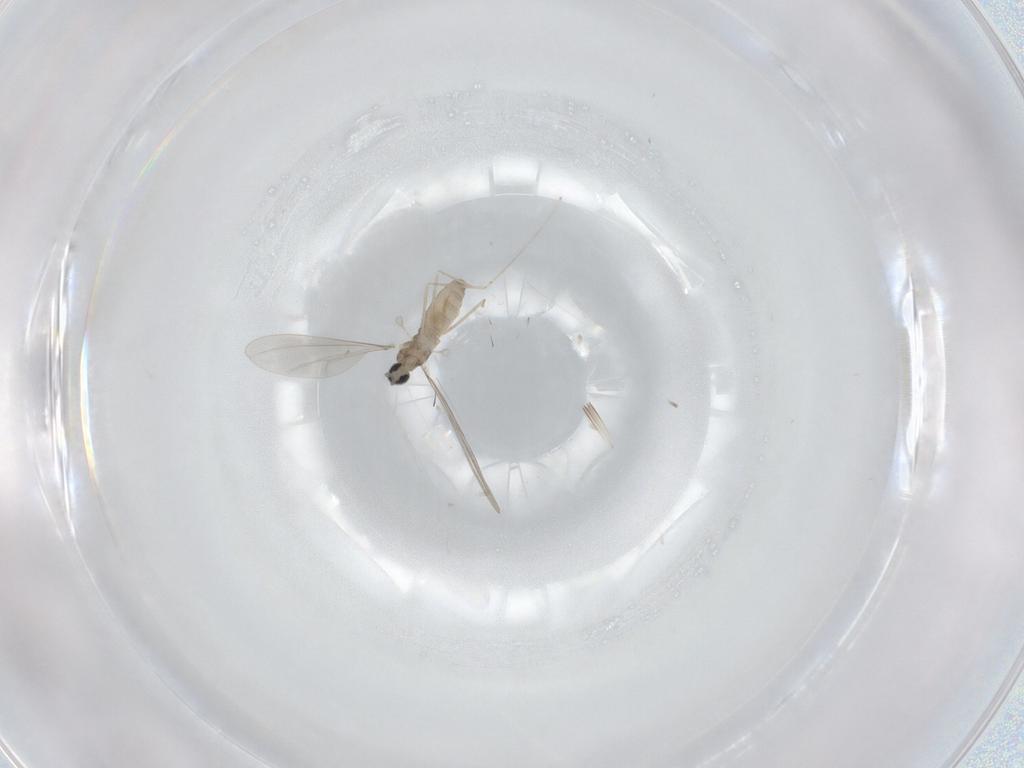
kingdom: Animalia
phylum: Arthropoda
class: Insecta
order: Diptera
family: Cecidomyiidae
